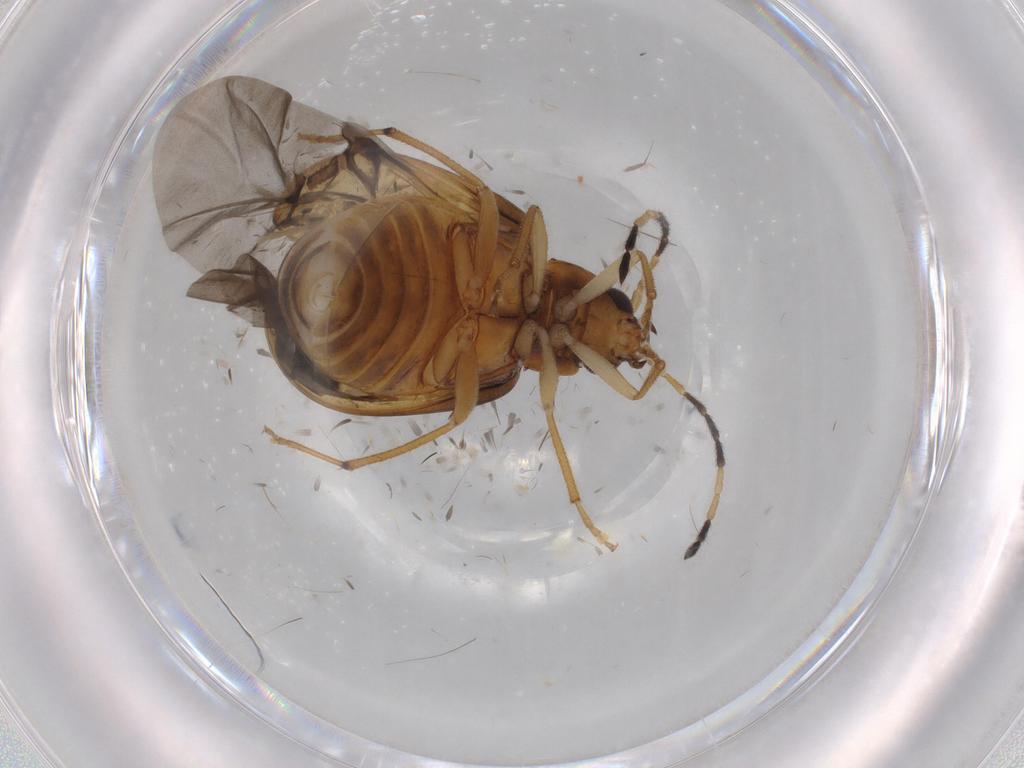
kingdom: Animalia
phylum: Arthropoda
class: Insecta
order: Coleoptera
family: Chrysomelidae
